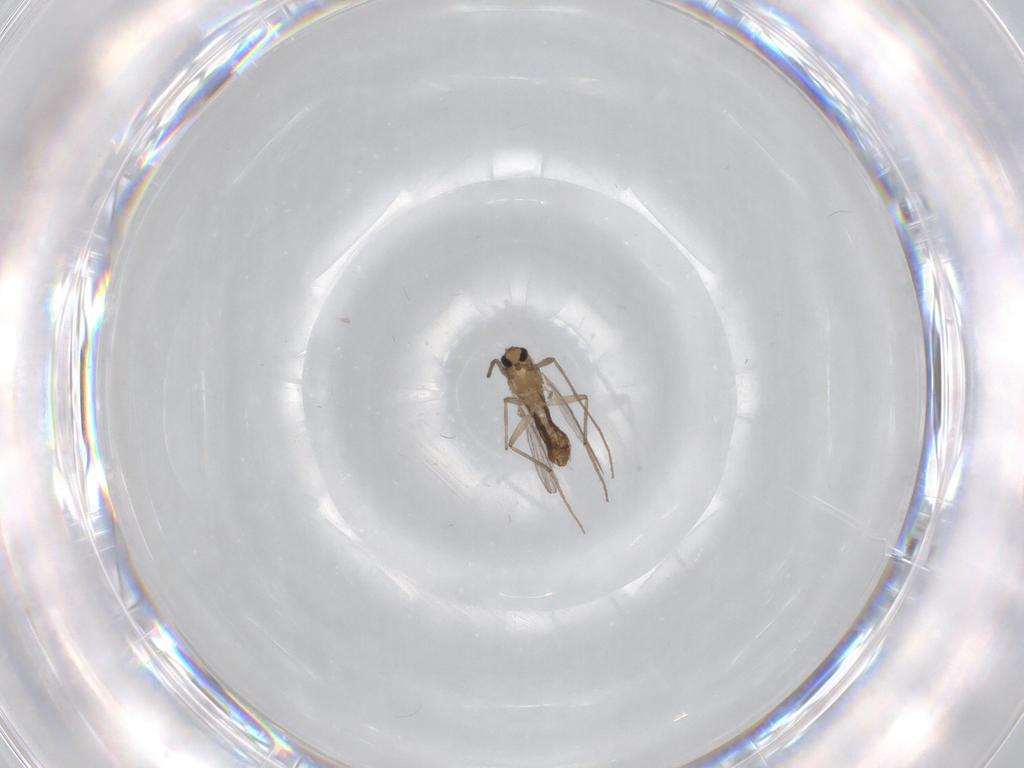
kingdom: Animalia
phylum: Arthropoda
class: Insecta
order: Diptera
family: Chironomidae
